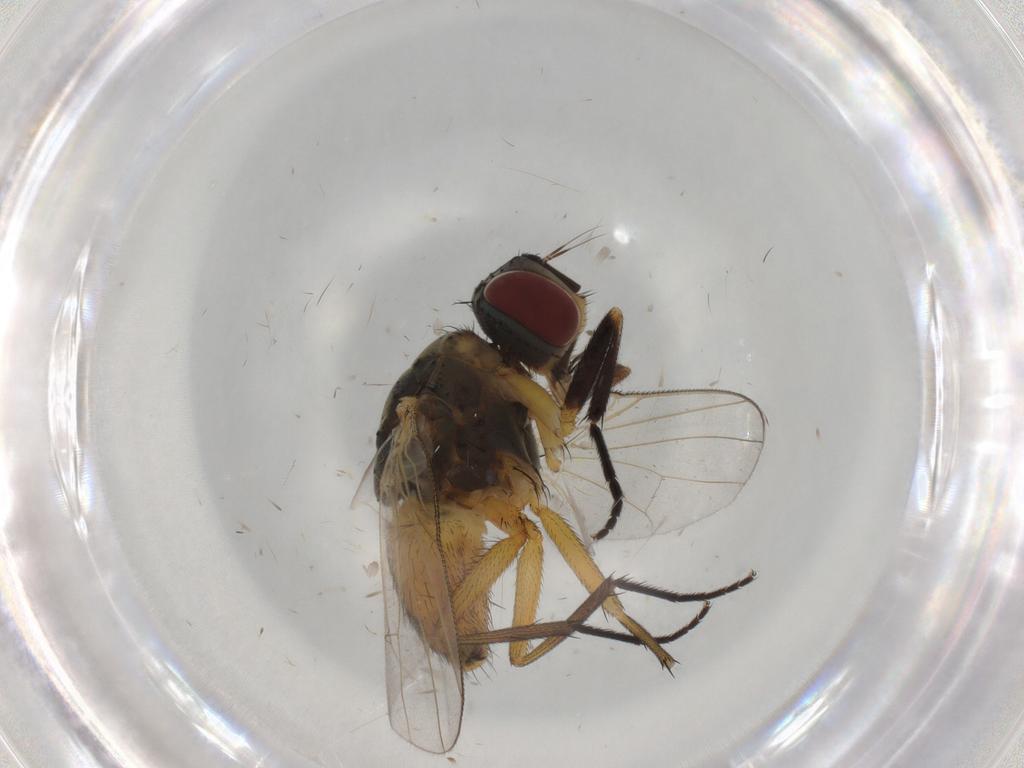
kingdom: Animalia
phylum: Arthropoda
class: Insecta
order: Diptera
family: Muscidae
